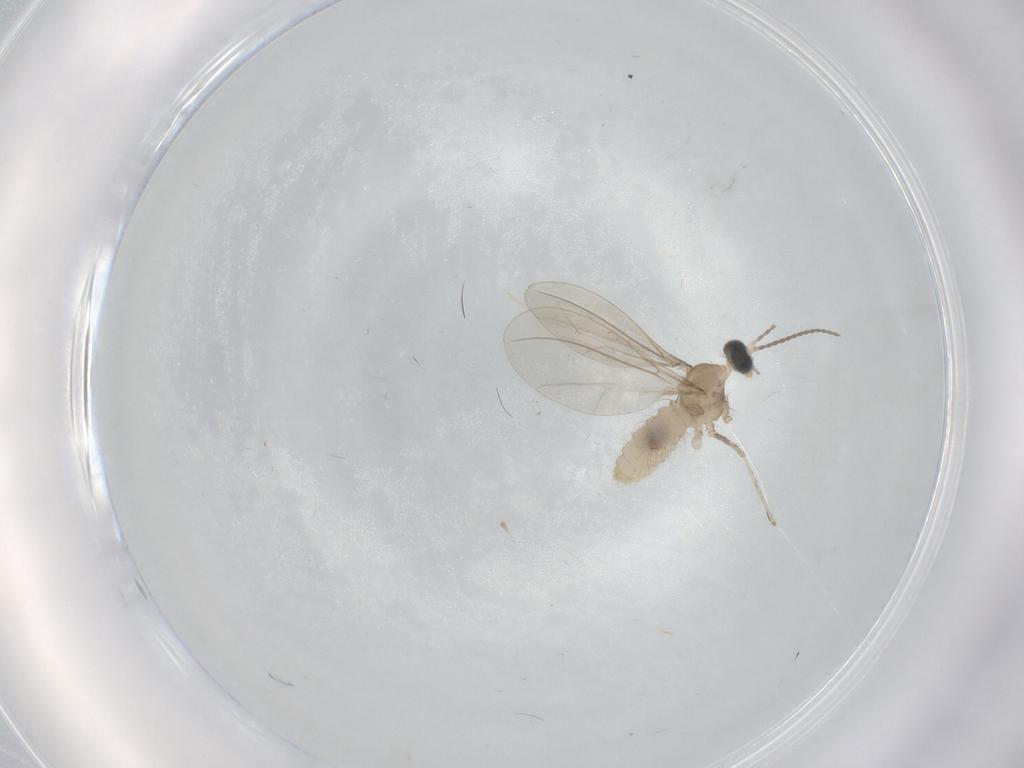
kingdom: Animalia
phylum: Arthropoda
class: Insecta
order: Diptera
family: Cecidomyiidae
